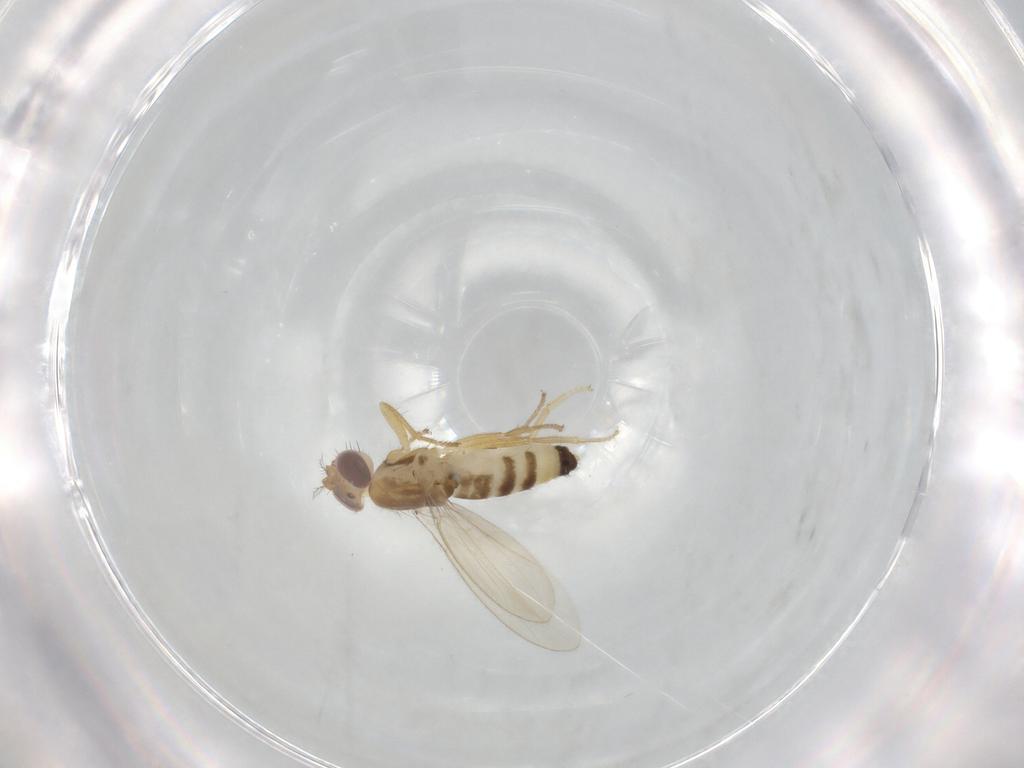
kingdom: Animalia
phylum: Arthropoda
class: Insecta
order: Diptera
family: Periscelididae
